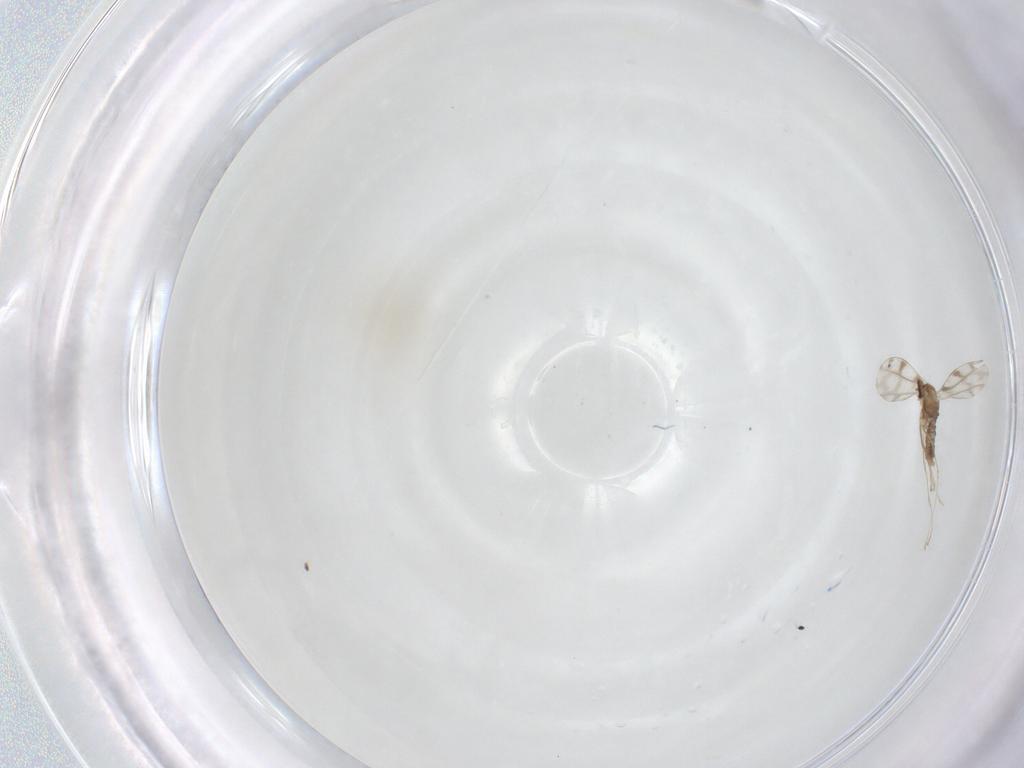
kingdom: Animalia
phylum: Arthropoda
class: Insecta
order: Diptera
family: Cecidomyiidae
